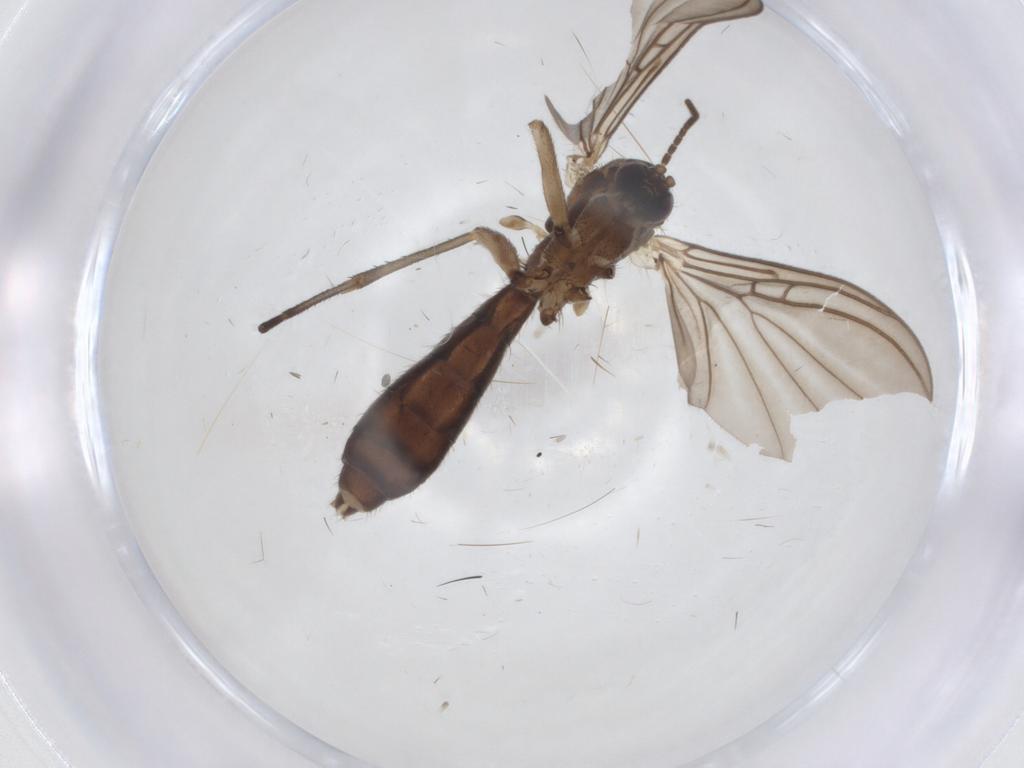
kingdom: Animalia
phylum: Arthropoda
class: Insecta
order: Diptera
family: Mycetophilidae
